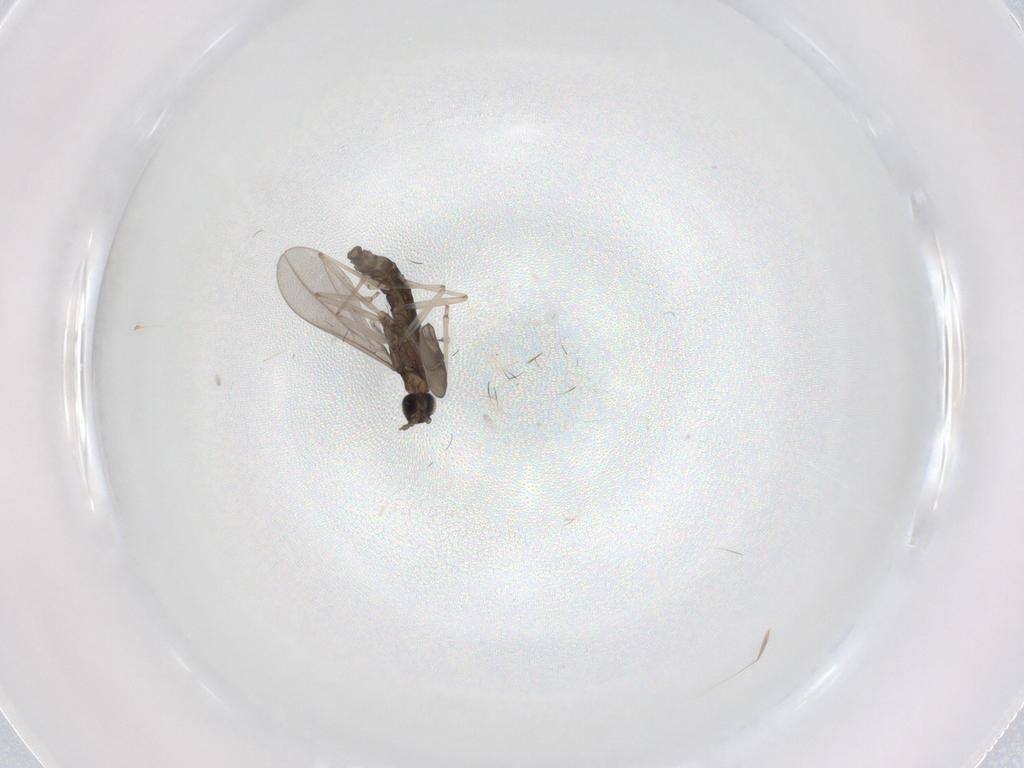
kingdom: Animalia
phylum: Arthropoda
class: Insecta
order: Diptera
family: Cecidomyiidae
